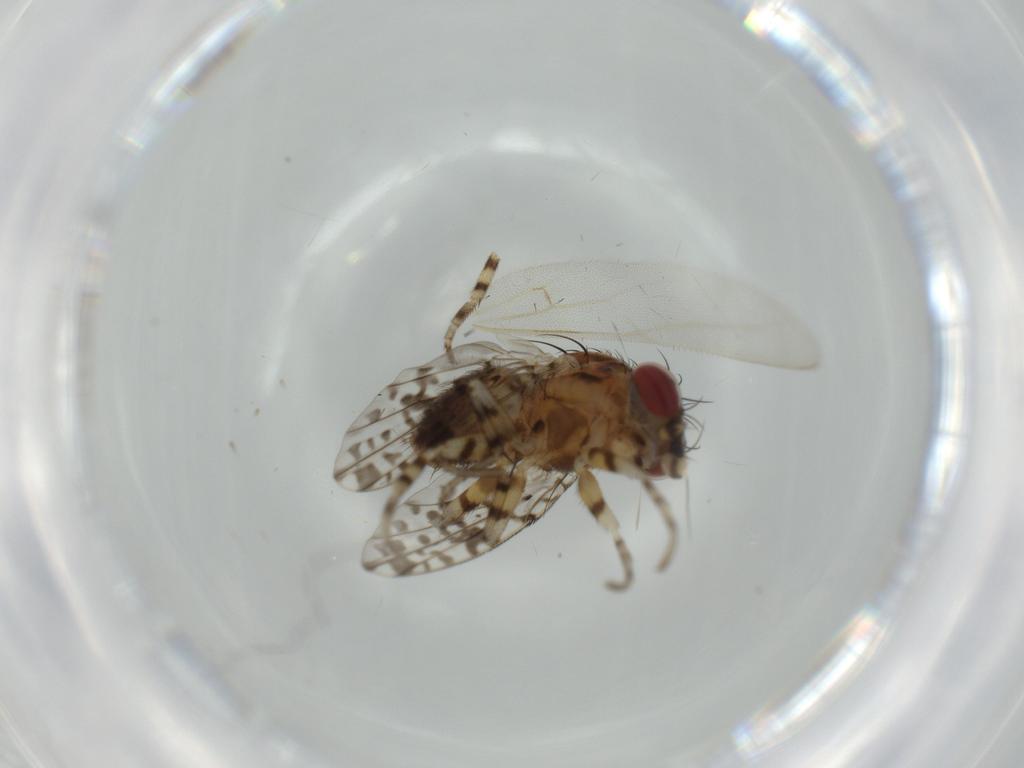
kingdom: Animalia
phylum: Arthropoda
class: Insecta
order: Diptera
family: Odiniidae
